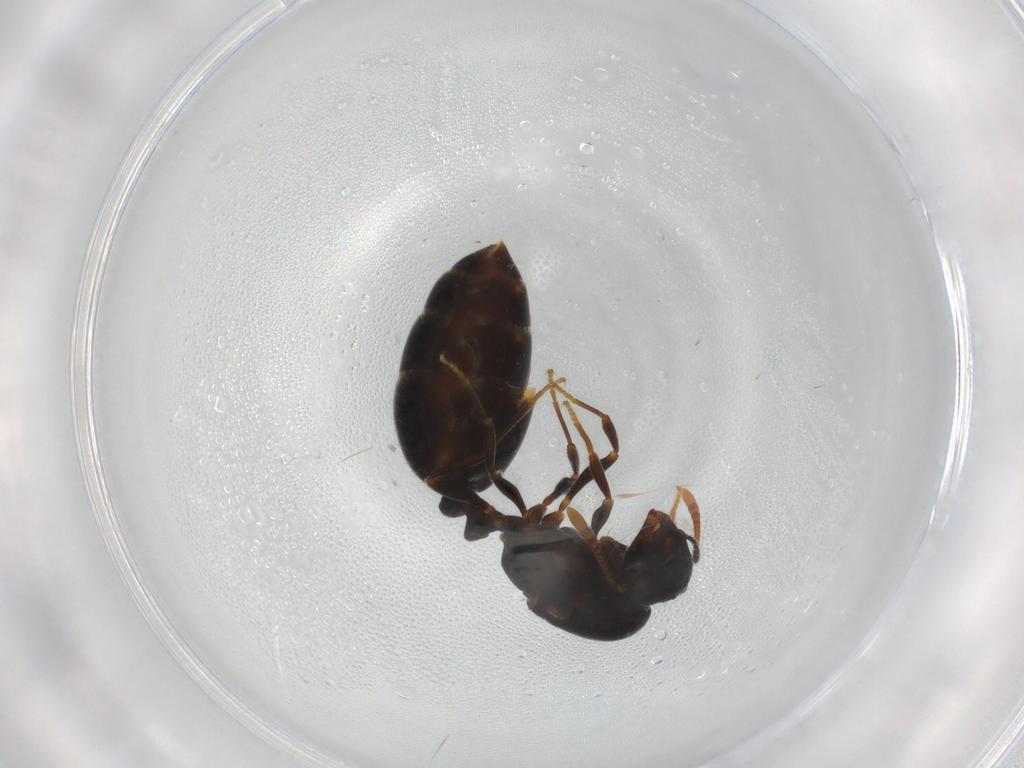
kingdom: Animalia
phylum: Arthropoda
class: Insecta
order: Hymenoptera
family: Formicidae
